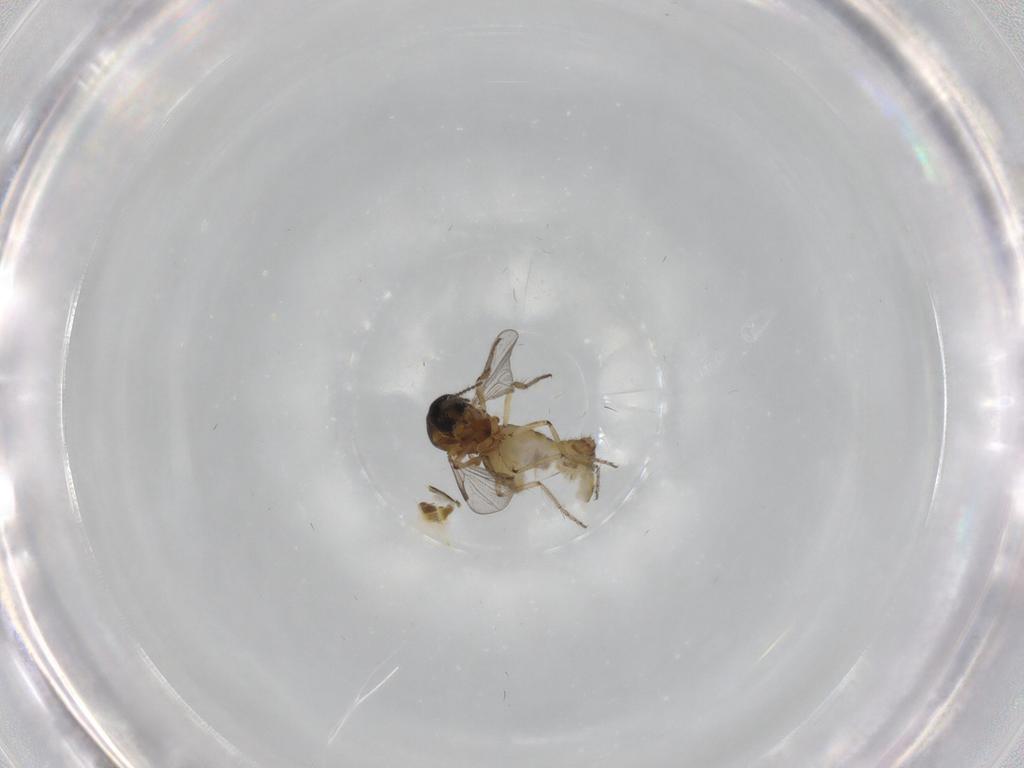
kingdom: Animalia
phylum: Arthropoda
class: Insecta
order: Diptera
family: Ceratopogonidae
